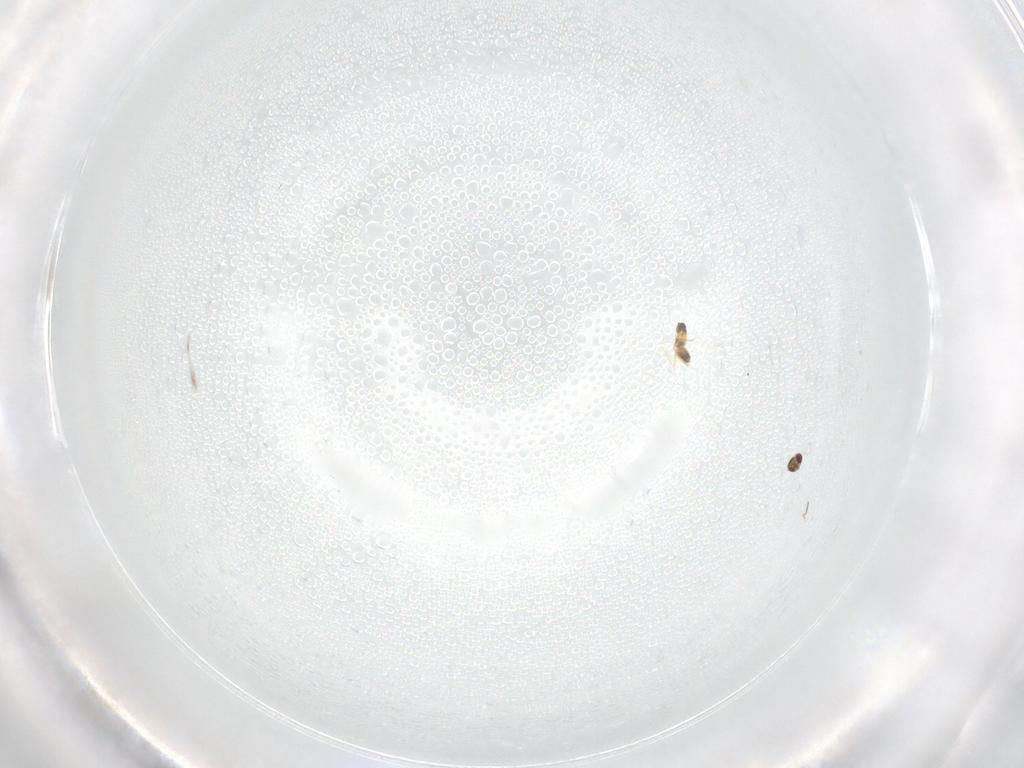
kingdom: Animalia
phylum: Arthropoda
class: Insecta
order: Hymenoptera
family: Mymaridae
